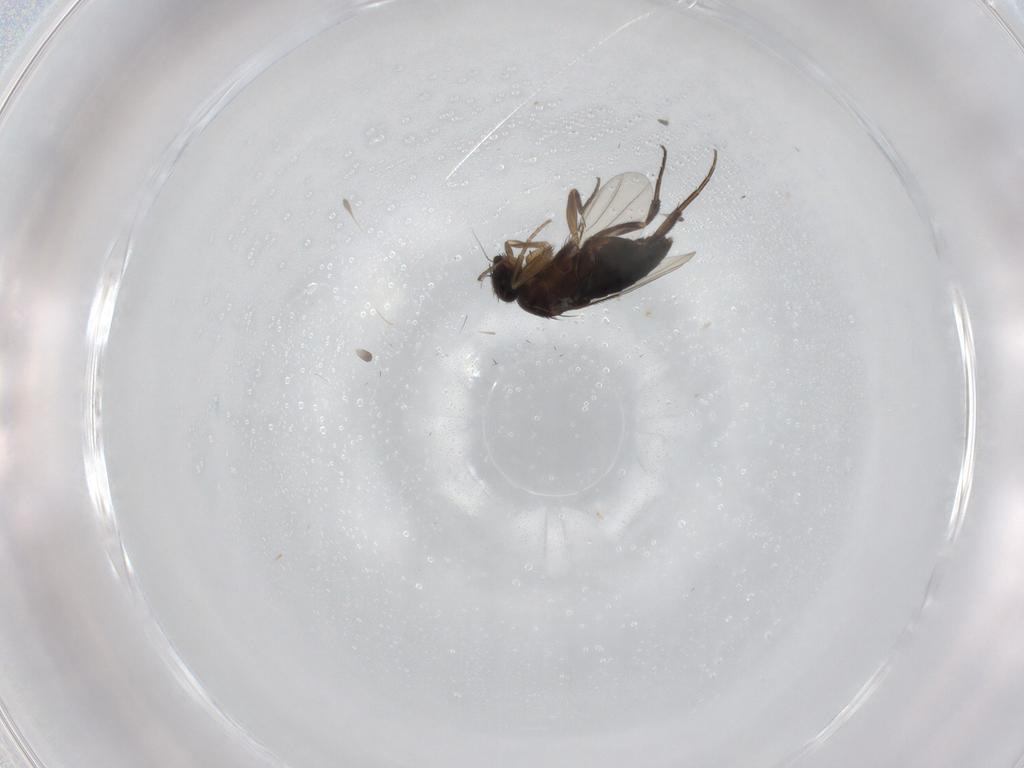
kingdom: Animalia
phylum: Arthropoda
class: Insecta
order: Diptera
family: Phoridae
